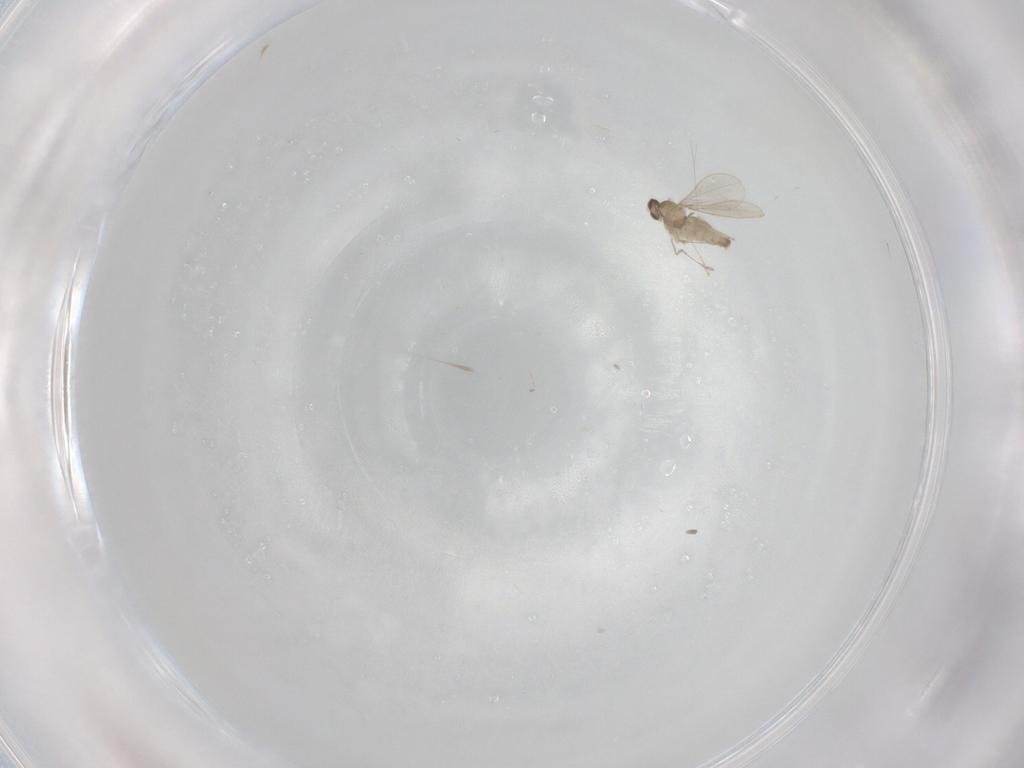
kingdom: Animalia
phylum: Arthropoda
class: Insecta
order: Diptera
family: Cecidomyiidae
